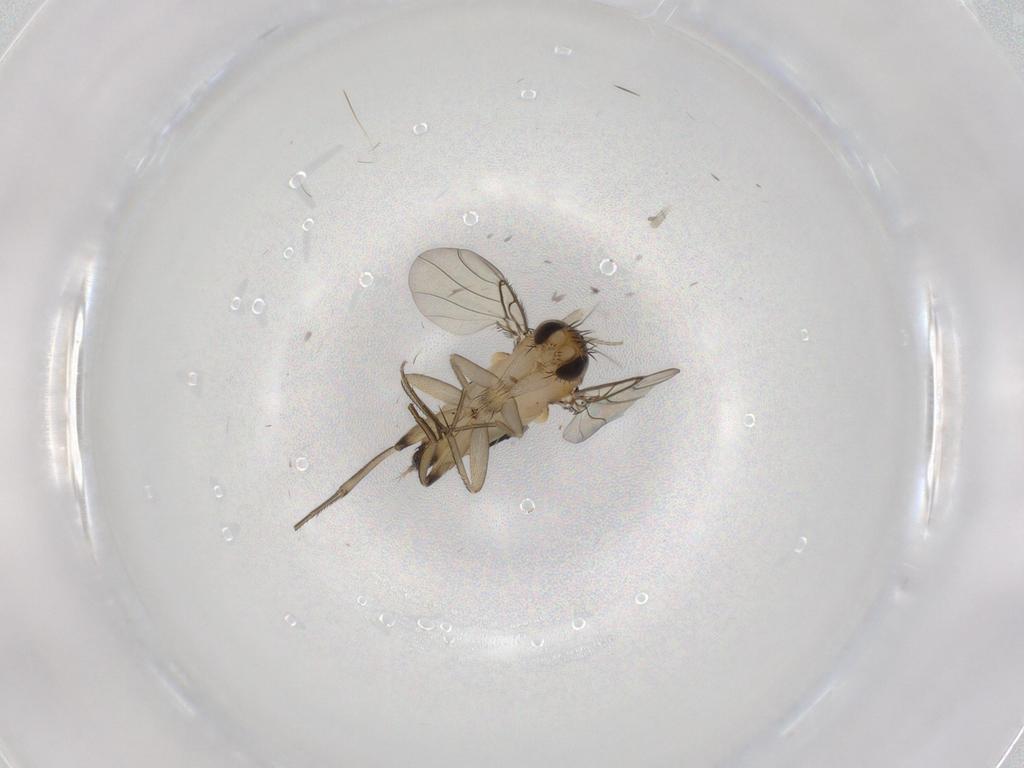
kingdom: Animalia
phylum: Arthropoda
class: Insecta
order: Diptera
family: Phoridae
